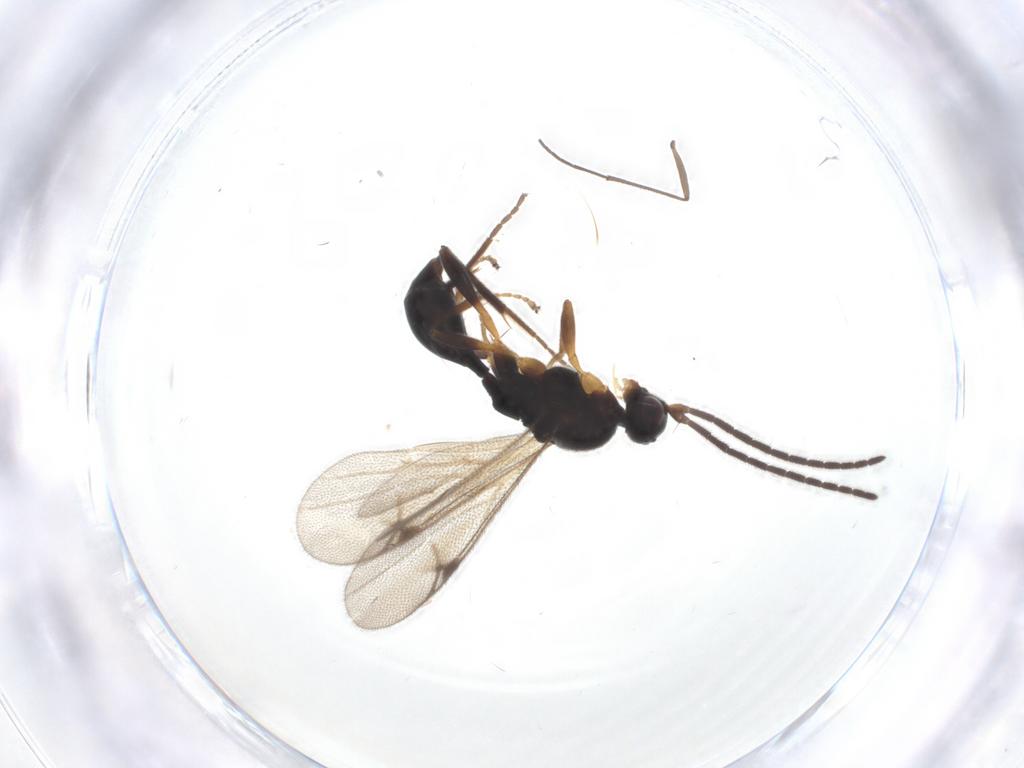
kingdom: Animalia
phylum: Arthropoda
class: Insecta
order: Hymenoptera
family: Proctotrupidae
